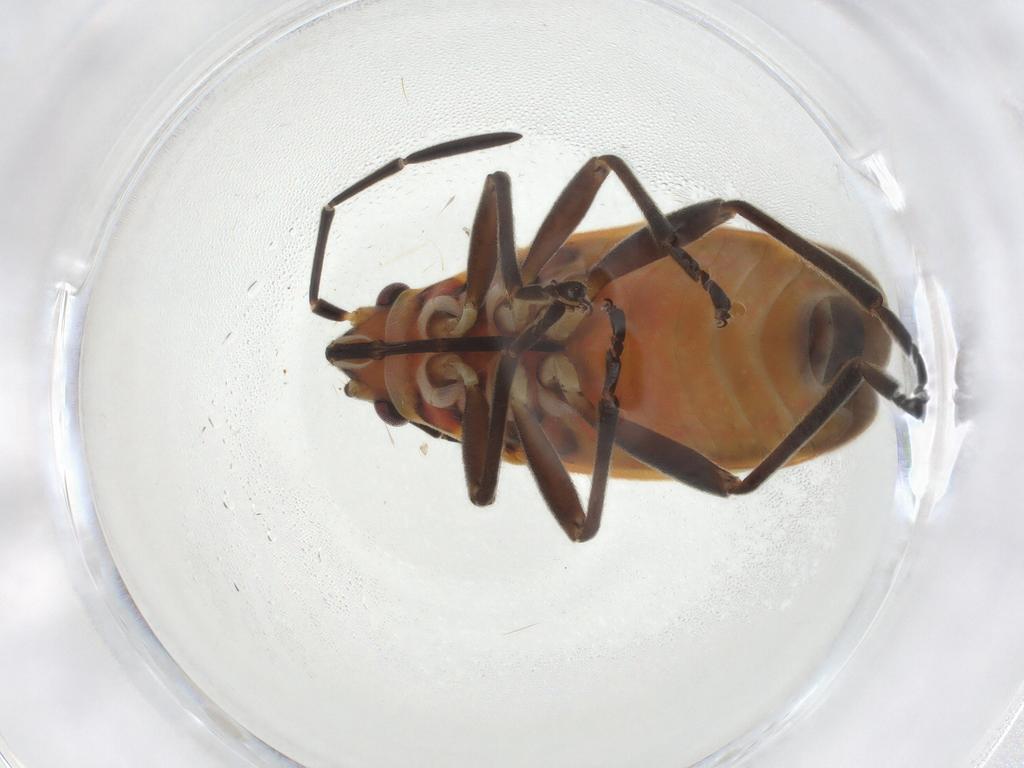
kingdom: Animalia
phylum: Arthropoda
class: Insecta
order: Hemiptera
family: Lygaeidae
